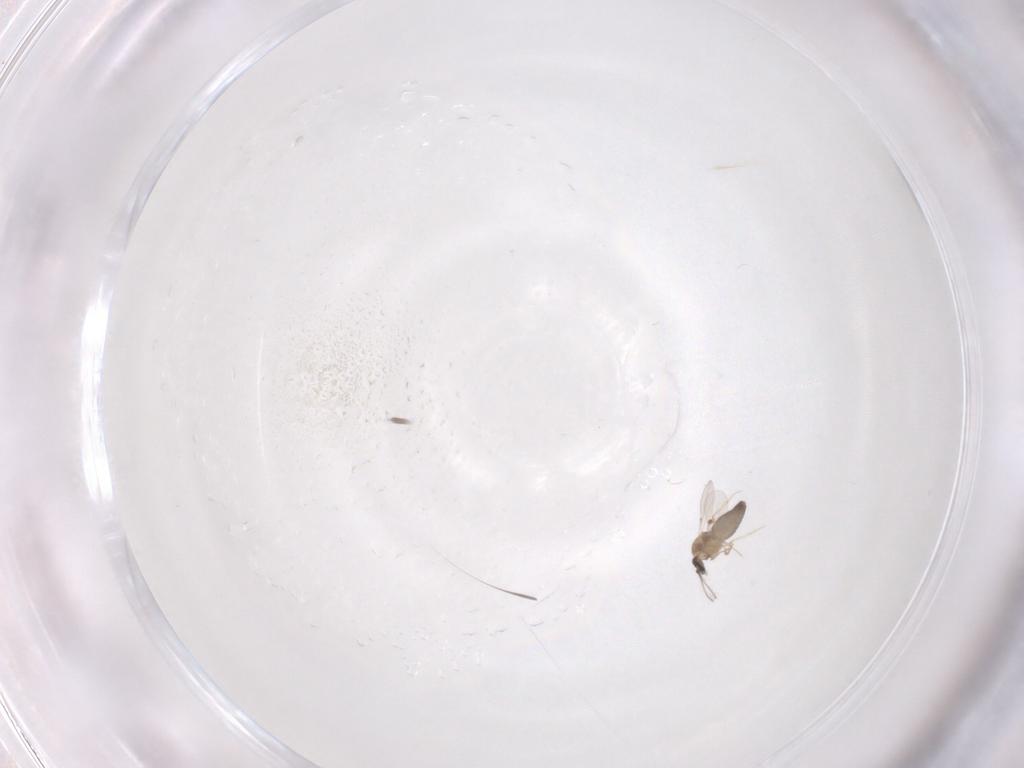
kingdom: Animalia
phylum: Arthropoda
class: Insecta
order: Diptera
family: Ceratopogonidae
